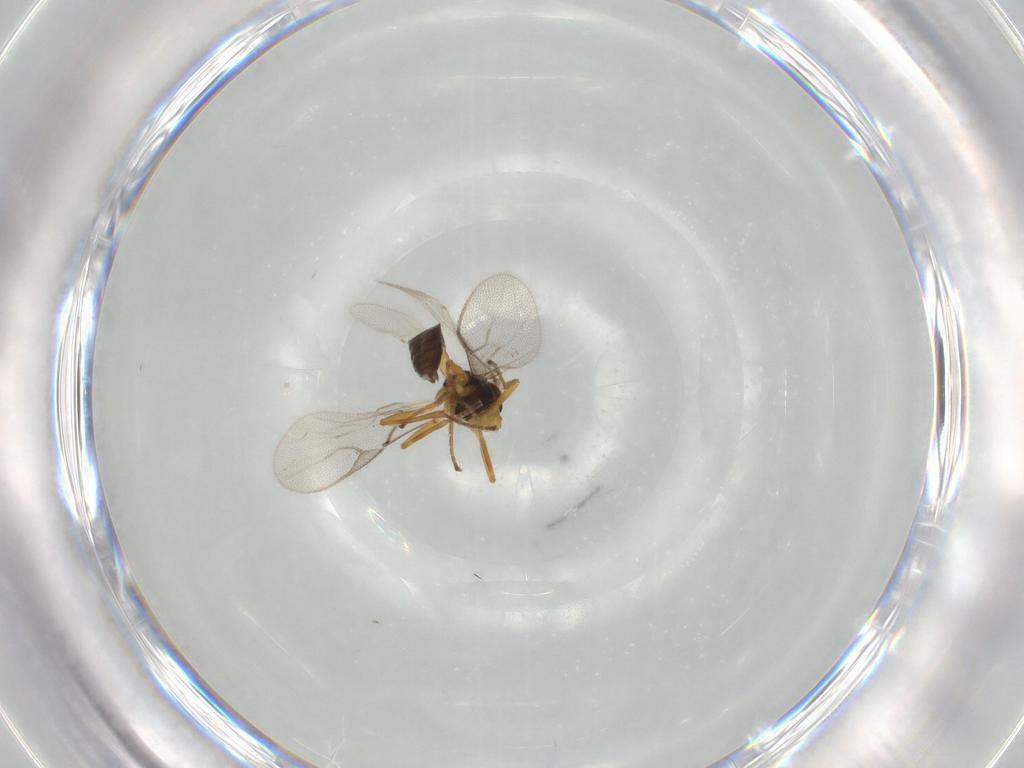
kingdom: Animalia
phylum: Arthropoda
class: Insecta
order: Hymenoptera
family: Braconidae
